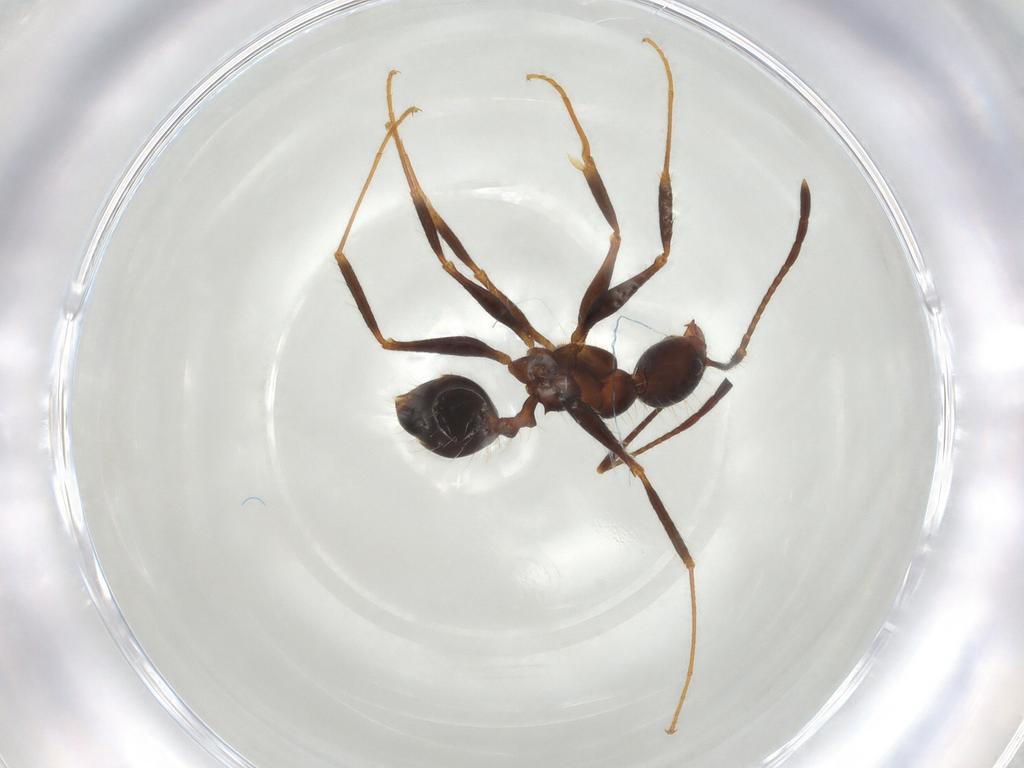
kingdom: Animalia
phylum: Arthropoda
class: Insecta
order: Hymenoptera
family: Formicidae
